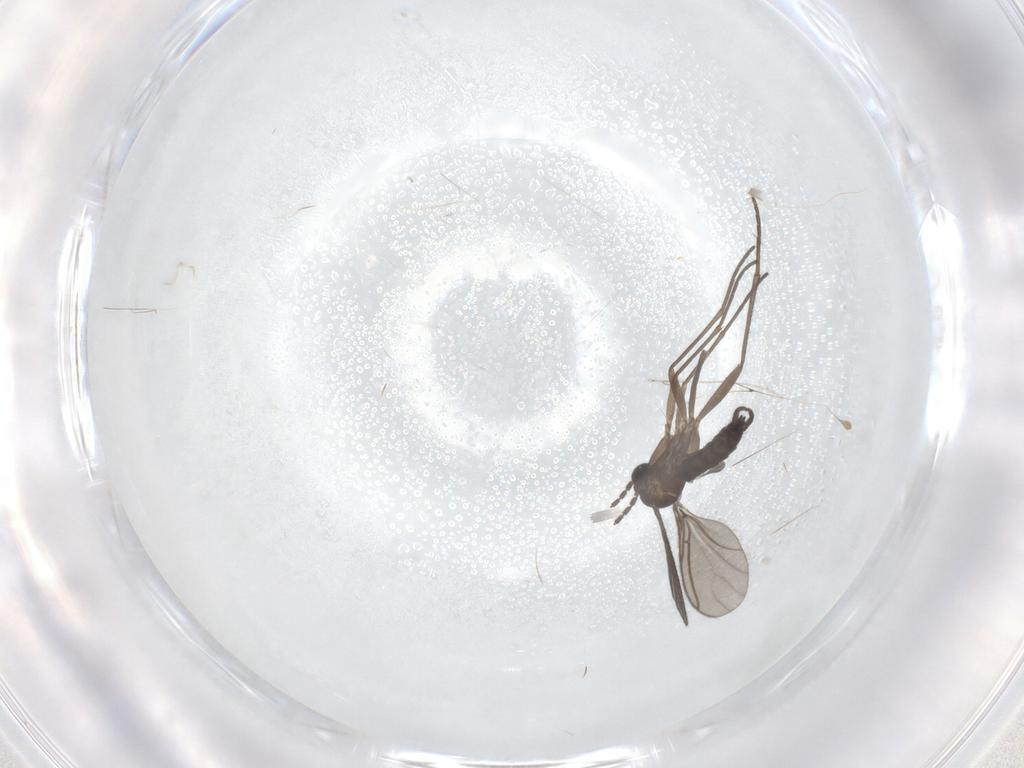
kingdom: Animalia
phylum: Arthropoda
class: Insecta
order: Diptera
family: Sciaridae
